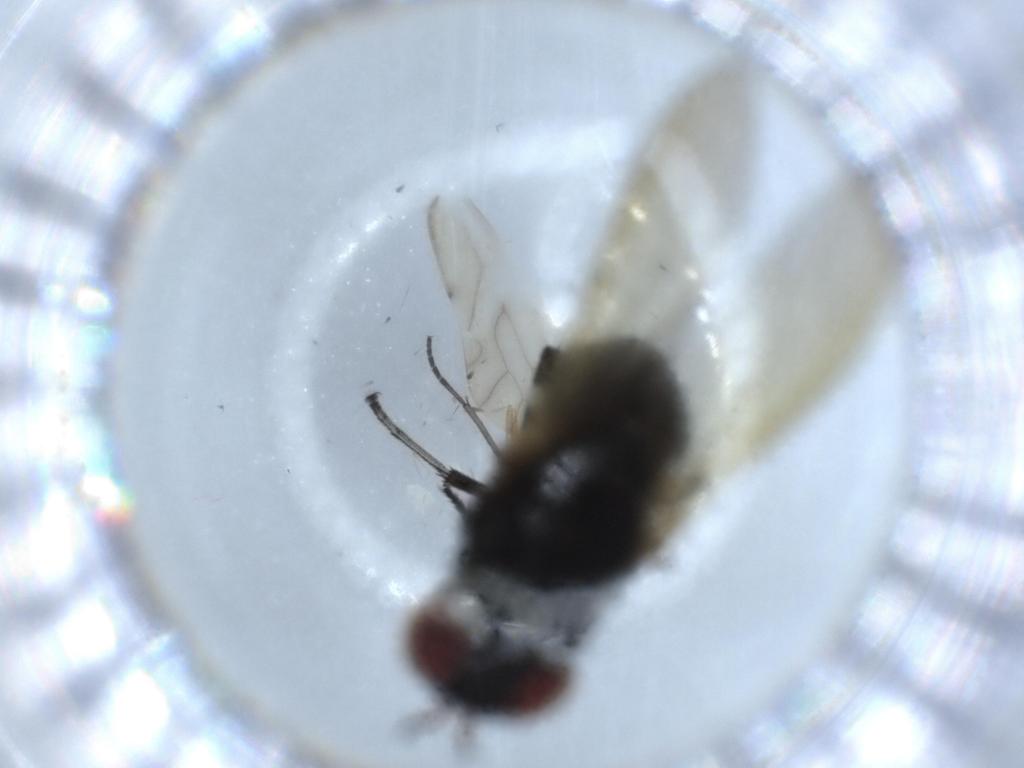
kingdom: Animalia
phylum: Arthropoda
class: Insecta
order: Diptera
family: Lauxaniidae
